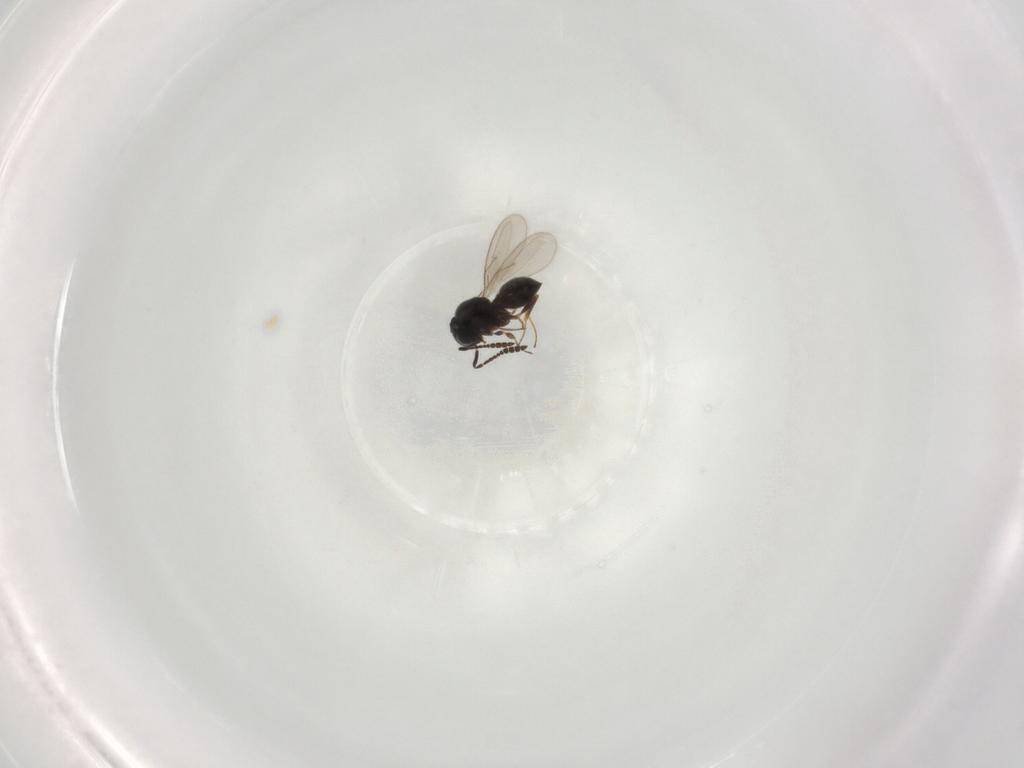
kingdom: Animalia
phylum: Arthropoda
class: Insecta
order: Hymenoptera
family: Scelionidae
